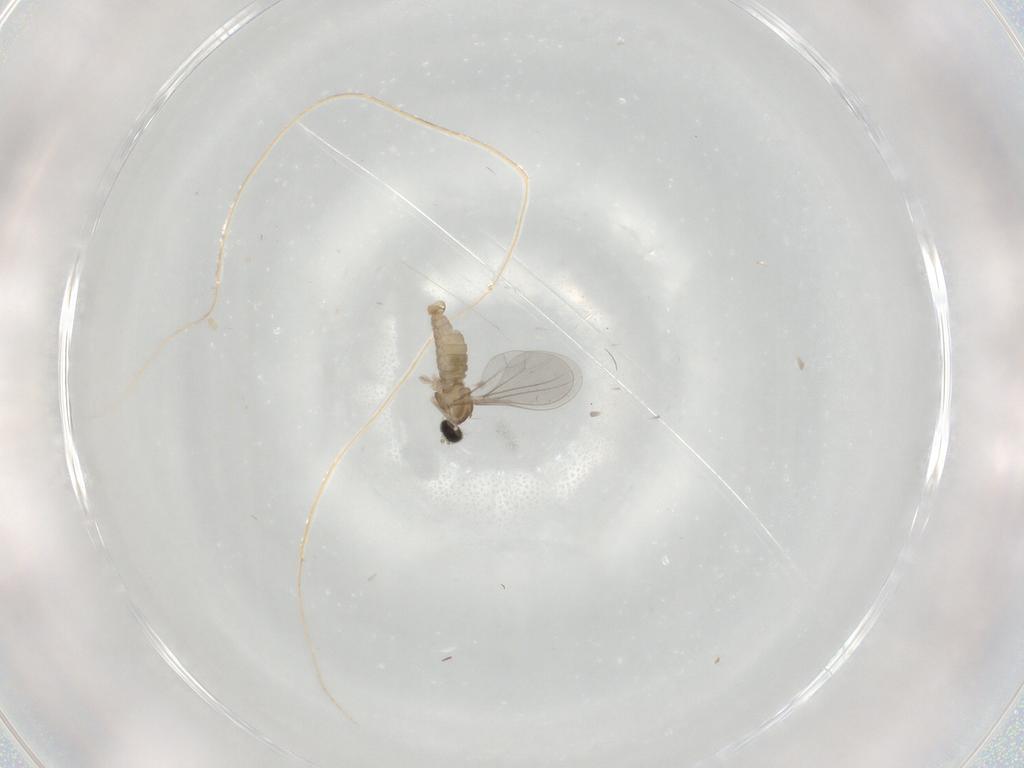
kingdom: Animalia
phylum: Arthropoda
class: Insecta
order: Diptera
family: Cecidomyiidae
